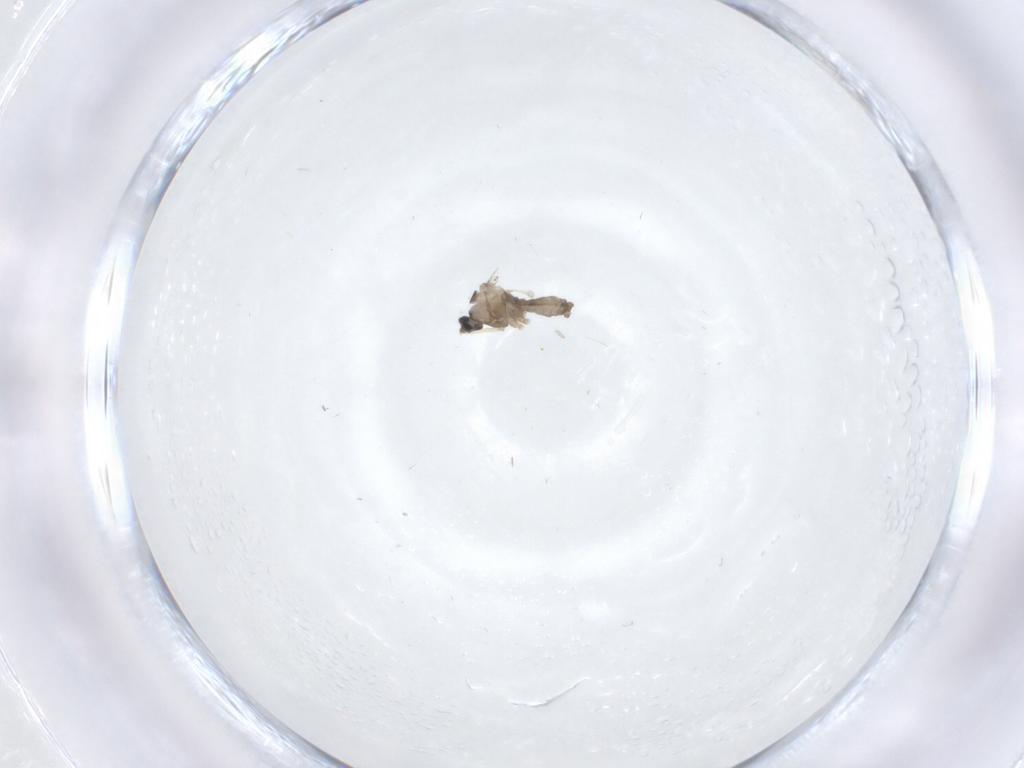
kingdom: Animalia
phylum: Arthropoda
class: Insecta
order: Diptera
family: Cecidomyiidae
